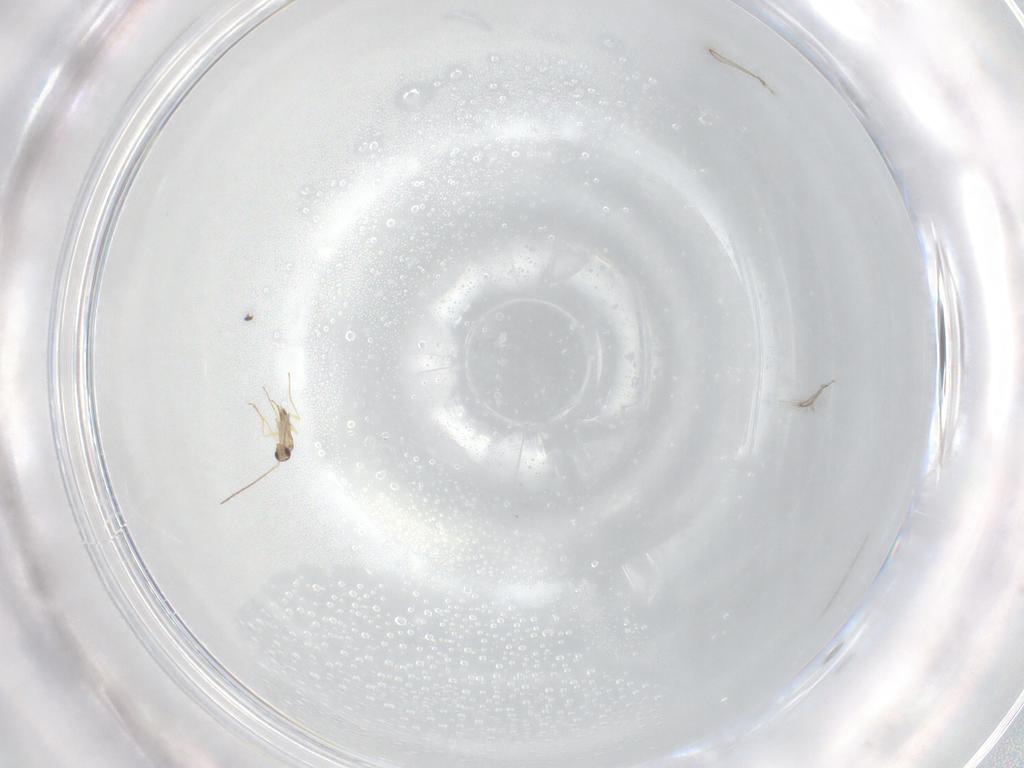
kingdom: Animalia
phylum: Arthropoda
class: Insecta
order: Hymenoptera
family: Mymaridae
